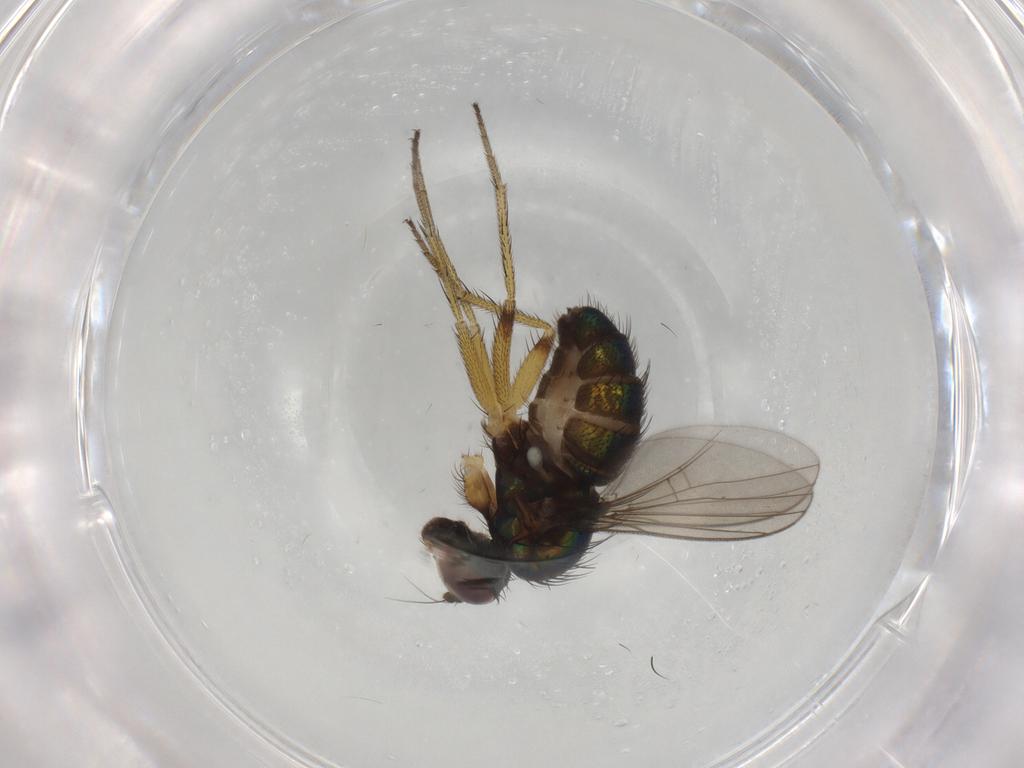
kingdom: Animalia
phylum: Arthropoda
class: Insecta
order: Diptera
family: Dolichopodidae
